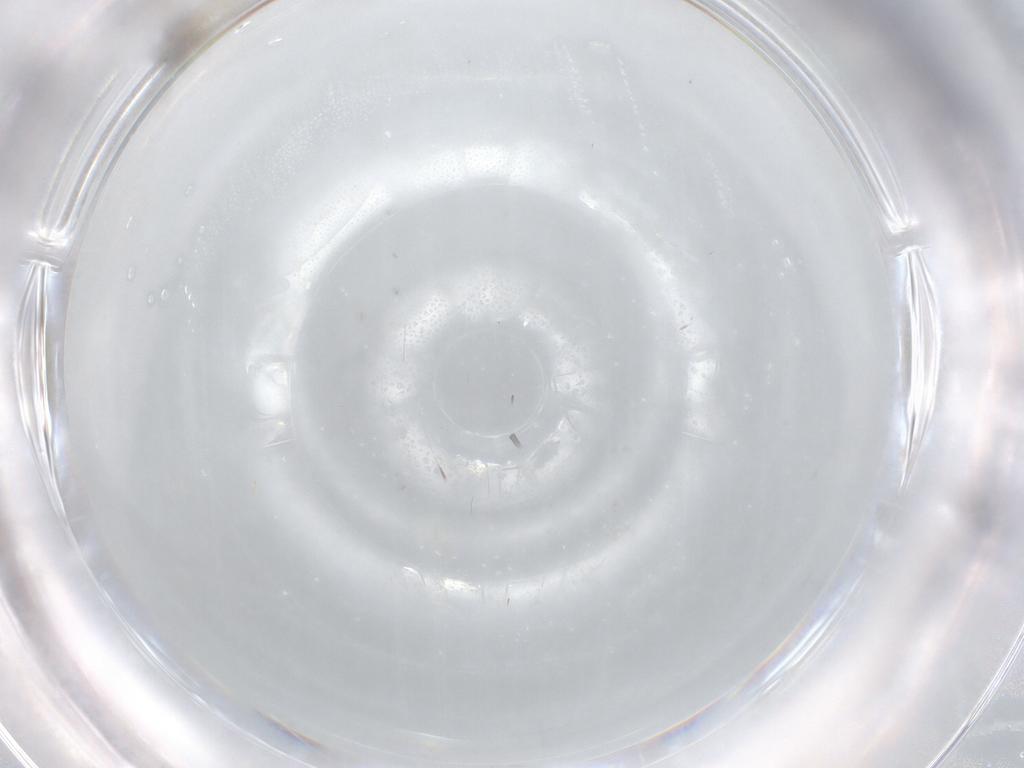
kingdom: Animalia
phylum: Arthropoda
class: Insecta
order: Diptera
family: Cecidomyiidae
